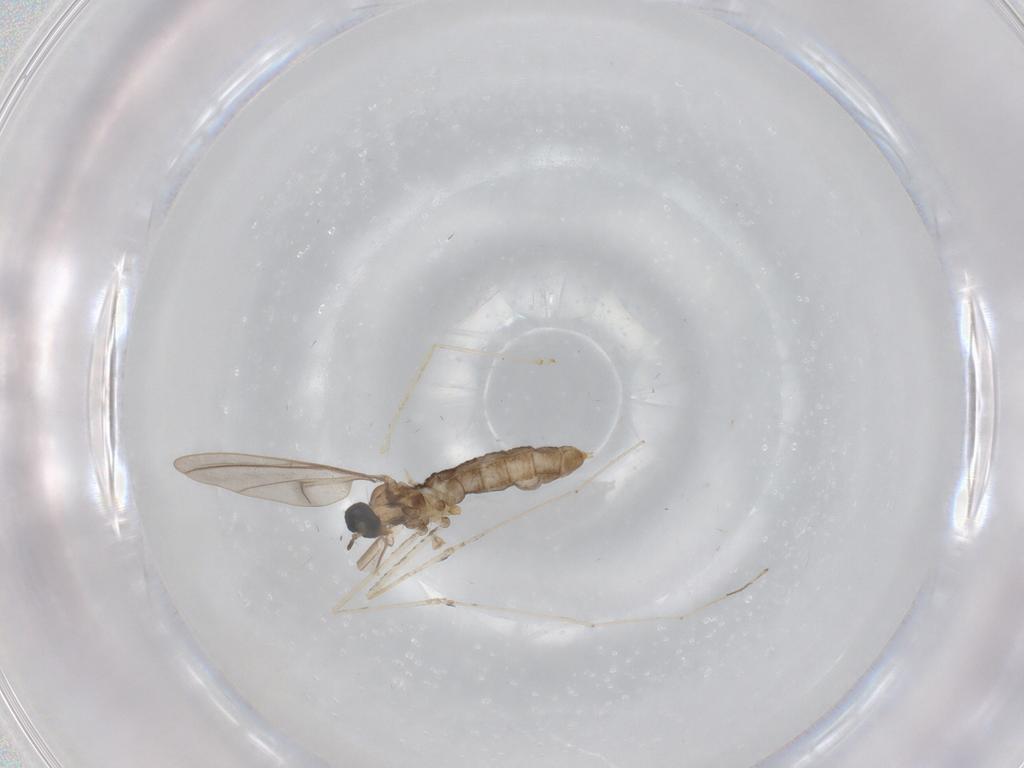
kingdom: Animalia
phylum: Arthropoda
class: Insecta
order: Diptera
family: Cecidomyiidae
